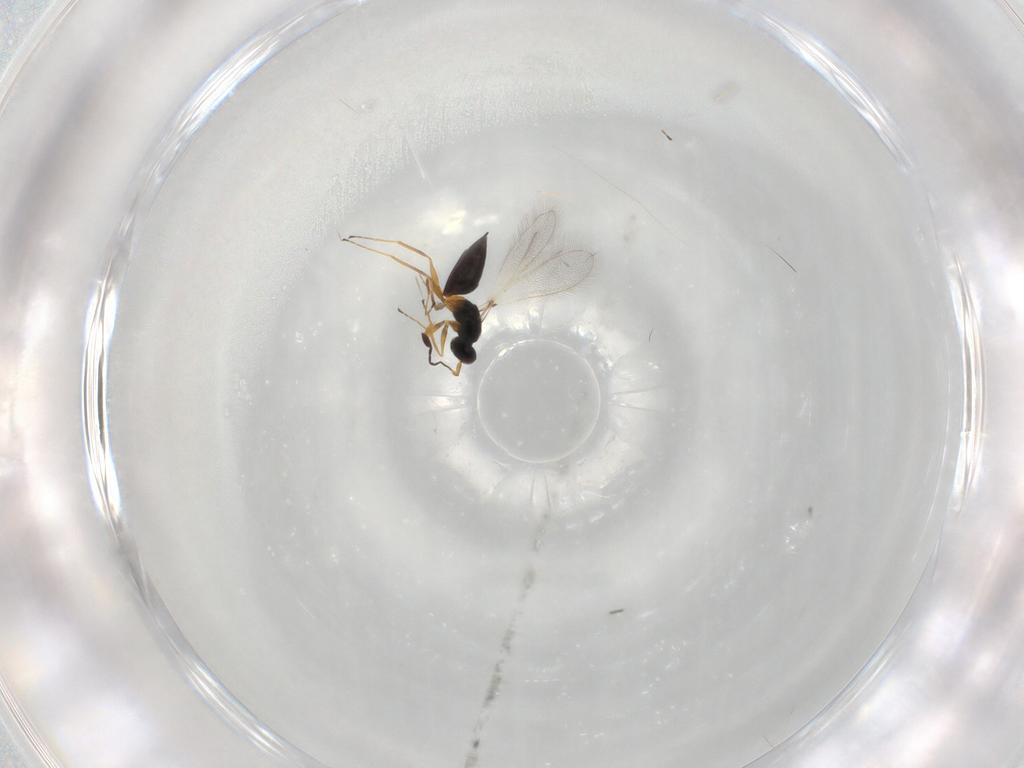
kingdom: Animalia
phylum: Arthropoda
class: Insecta
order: Hymenoptera
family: Mymaridae
